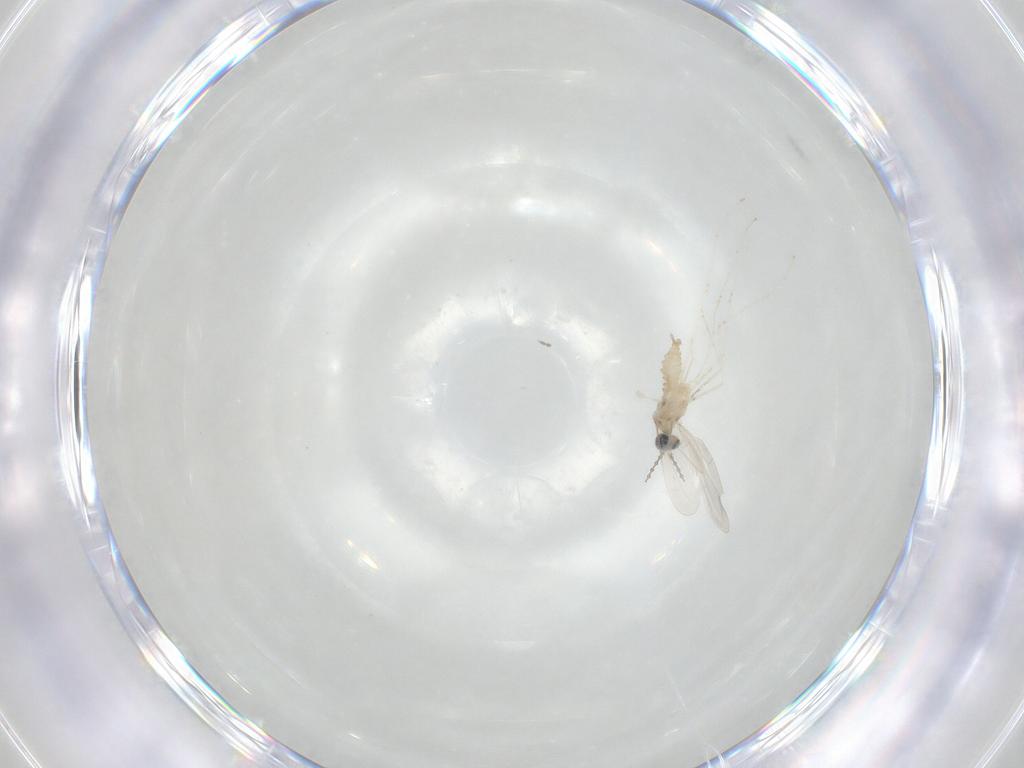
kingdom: Animalia
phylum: Arthropoda
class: Insecta
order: Diptera
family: Cecidomyiidae
